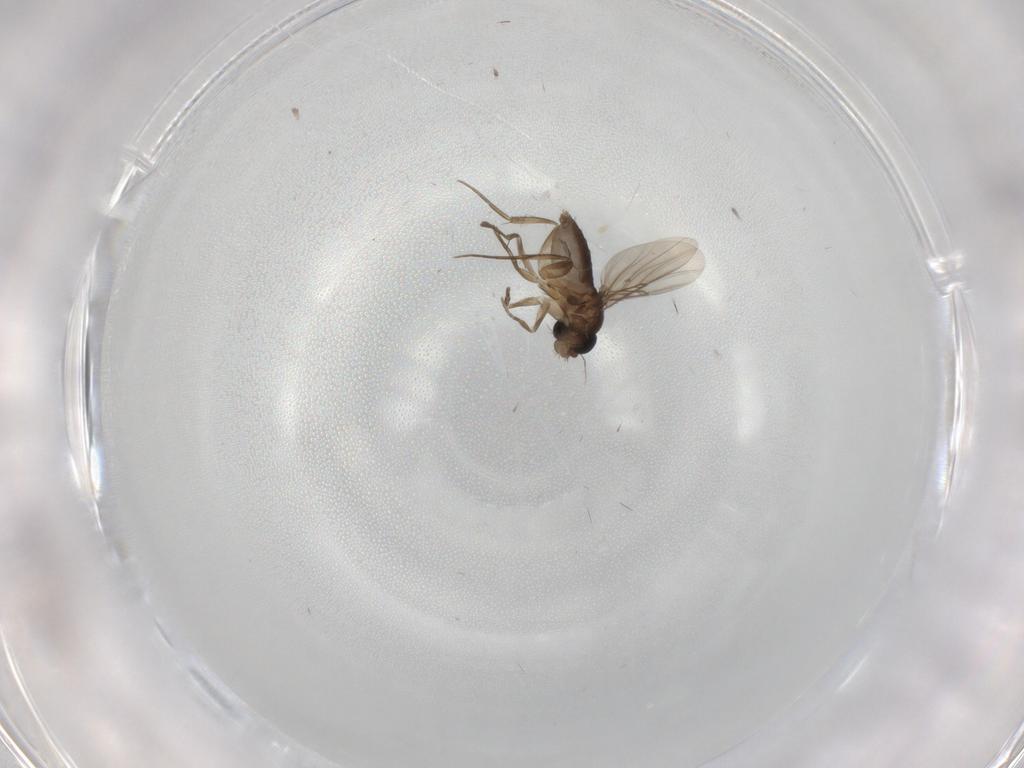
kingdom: Animalia
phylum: Arthropoda
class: Insecta
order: Diptera
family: Phoridae
